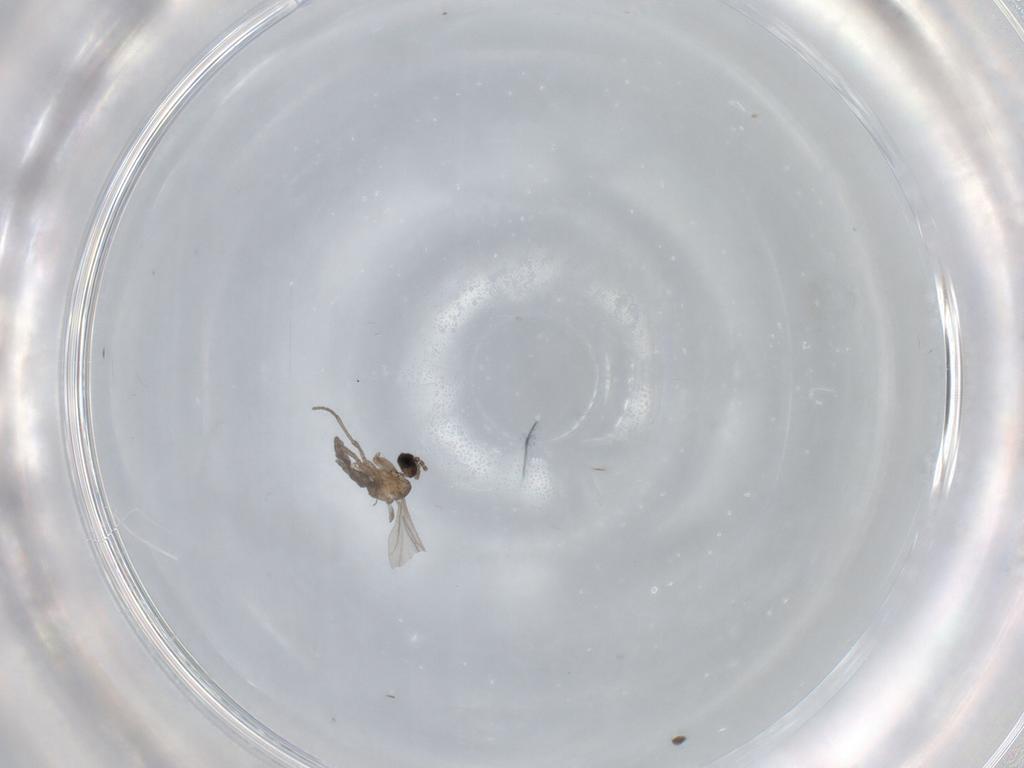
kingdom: Animalia
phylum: Arthropoda
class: Insecta
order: Diptera
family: Sciaridae
